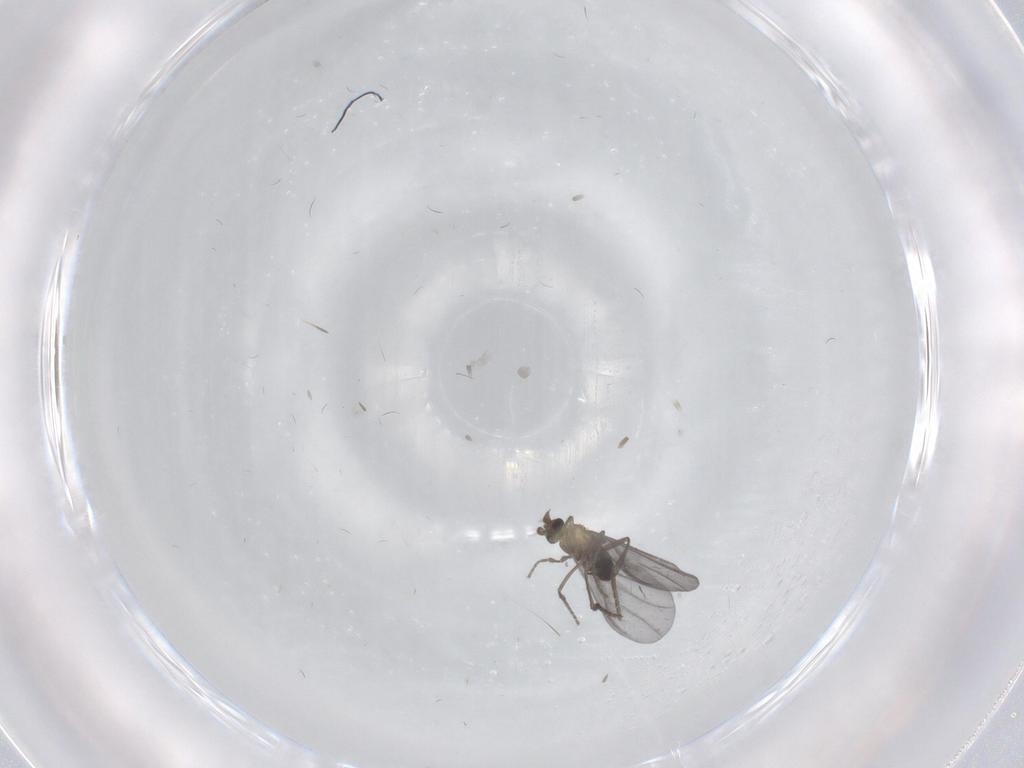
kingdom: Animalia
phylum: Arthropoda
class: Insecta
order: Diptera
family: Phoridae
